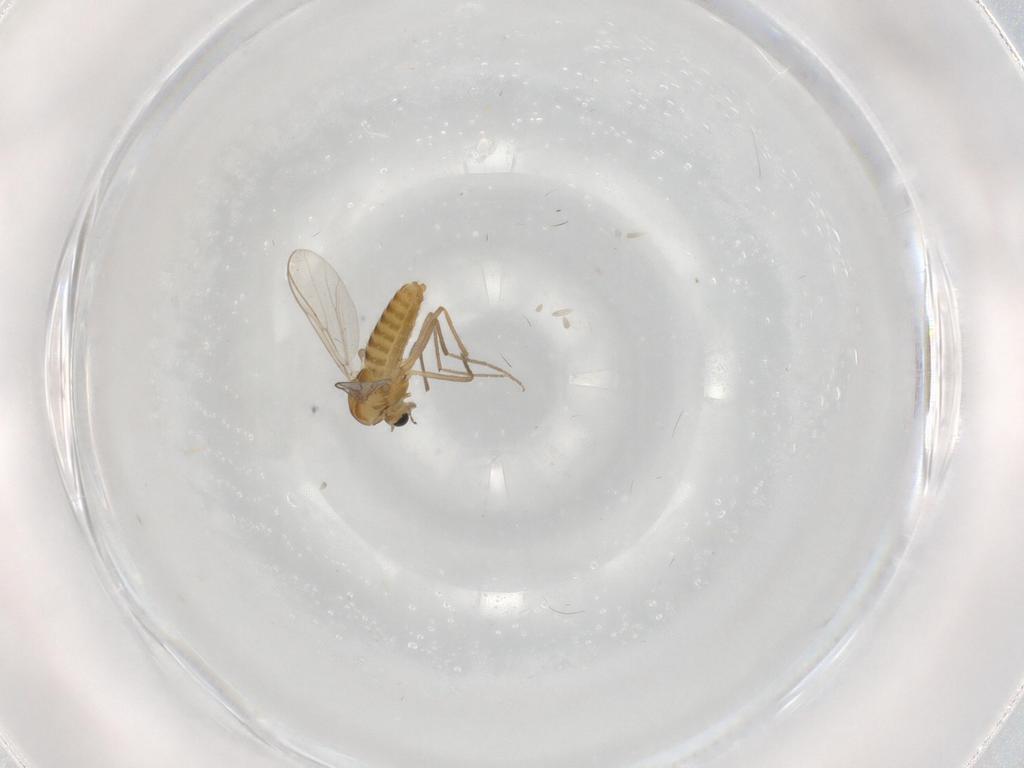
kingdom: Animalia
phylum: Arthropoda
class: Insecta
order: Diptera
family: Chironomidae
